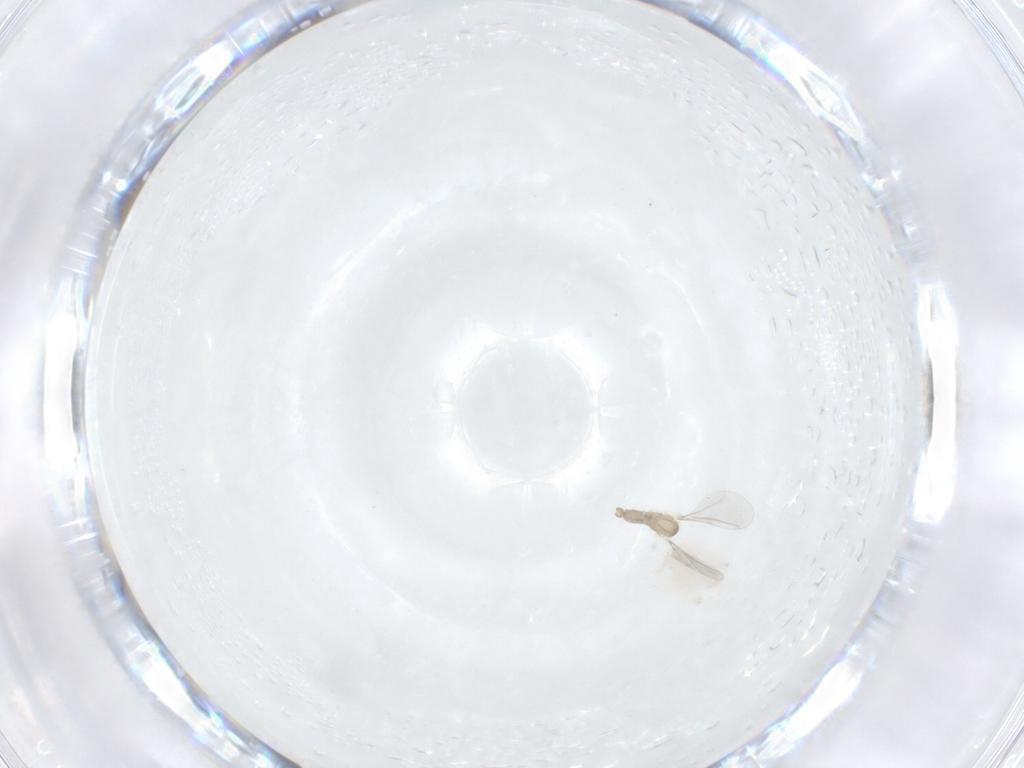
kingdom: Animalia
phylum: Arthropoda
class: Insecta
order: Diptera
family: Cecidomyiidae
